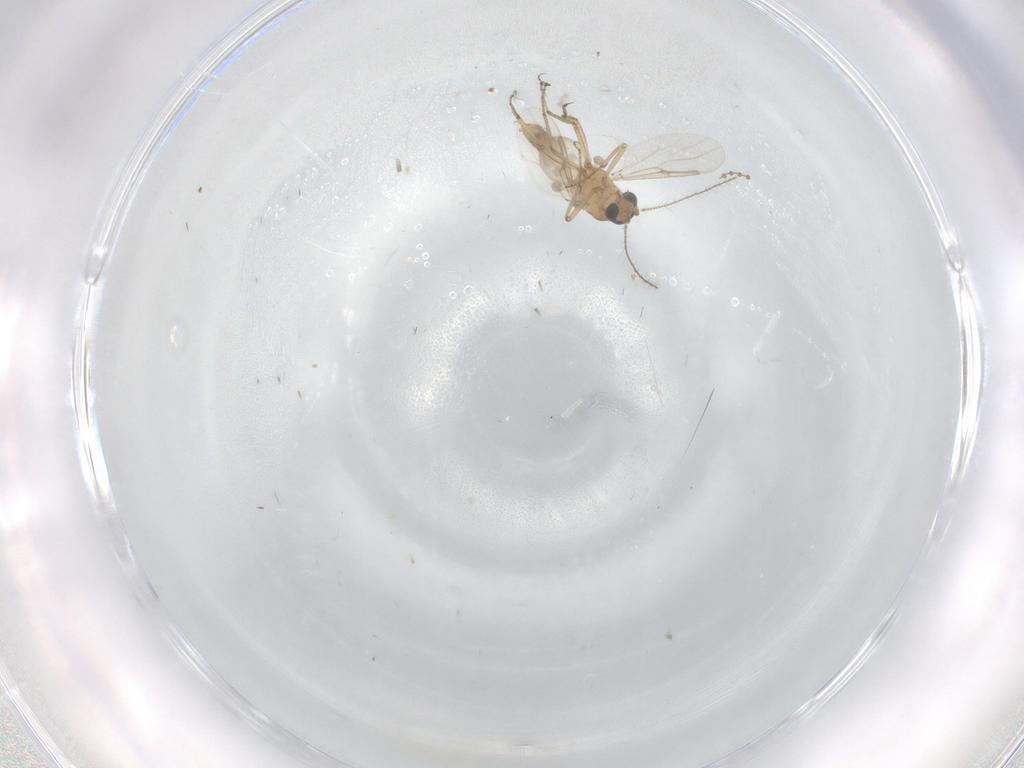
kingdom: Animalia
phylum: Arthropoda
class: Insecta
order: Diptera
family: Cecidomyiidae
